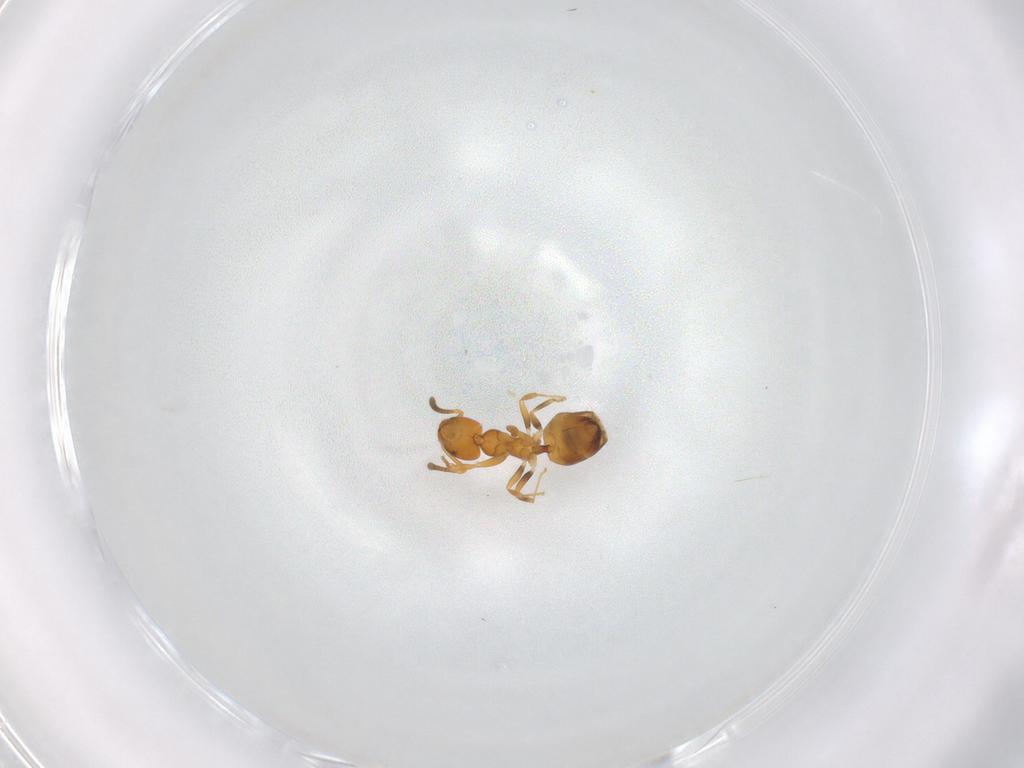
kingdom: Animalia
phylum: Arthropoda
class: Insecta
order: Hymenoptera
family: Formicidae
